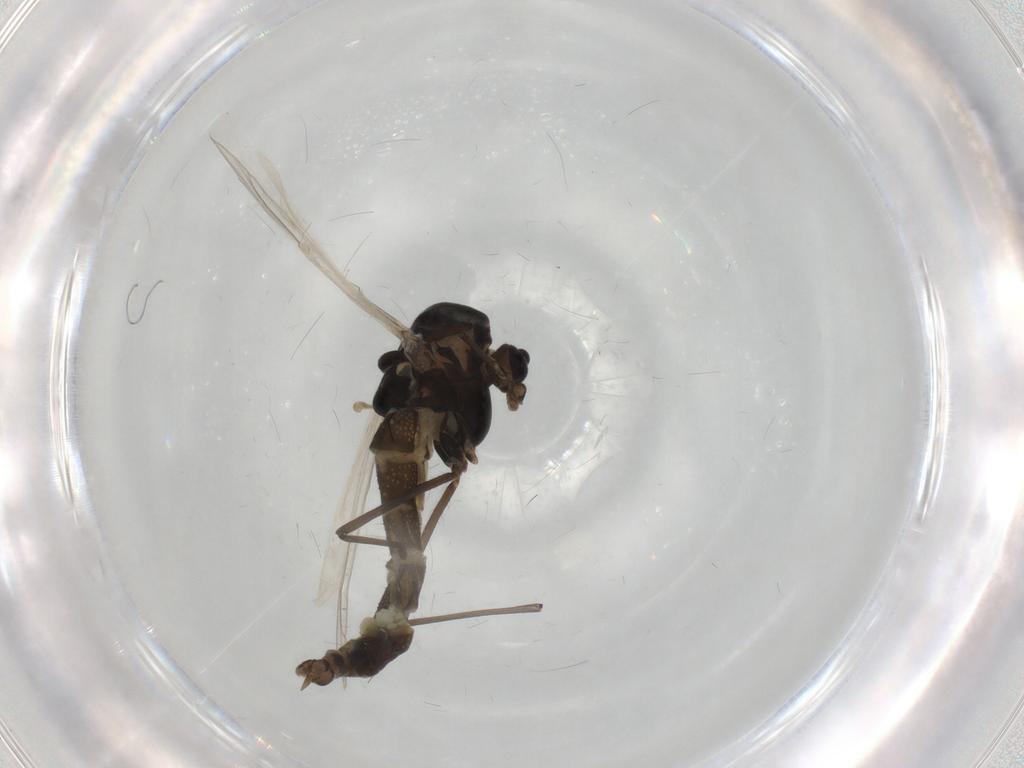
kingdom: Animalia
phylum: Arthropoda
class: Insecta
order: Diptera
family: Chironomidae
